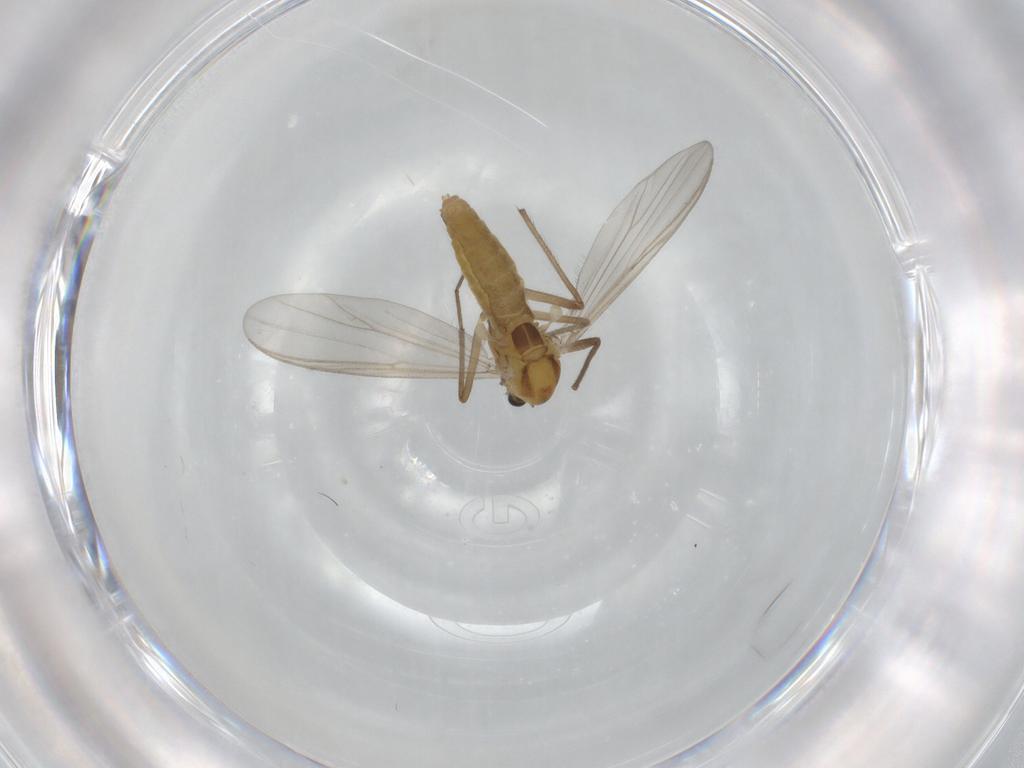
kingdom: Animalia
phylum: Arthropoda
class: Insecta
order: Diptera
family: Chironomidae
